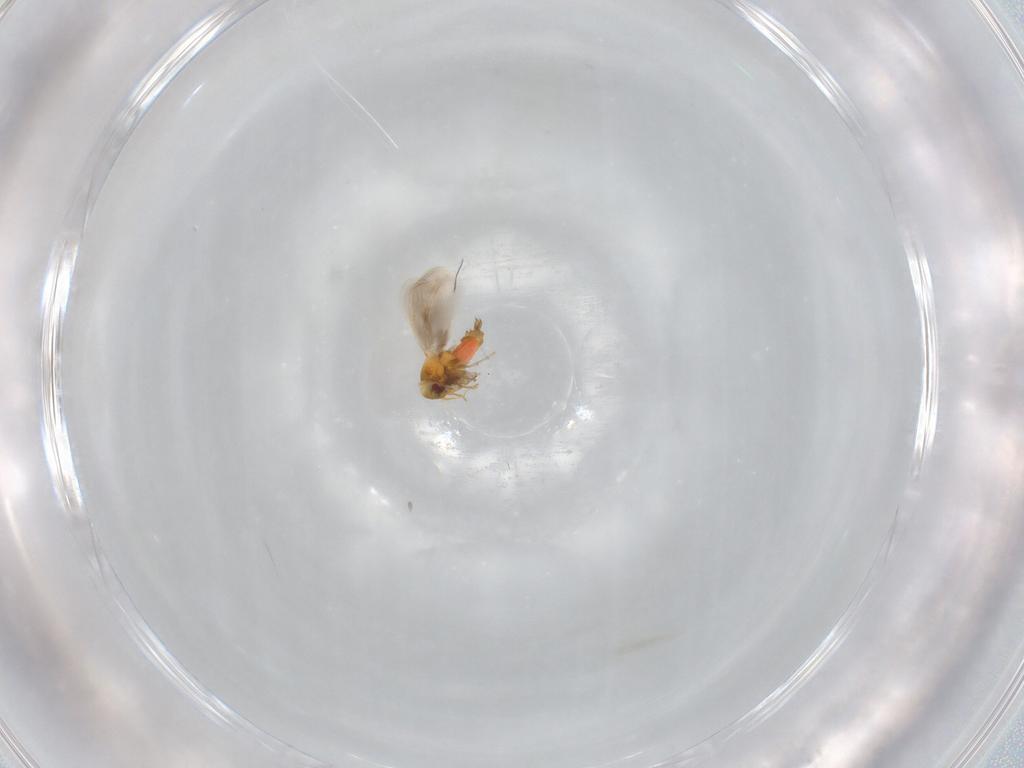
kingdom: Animalia
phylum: Arthropoda
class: Insecta
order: Hemiptera
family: Aleyrodidae
